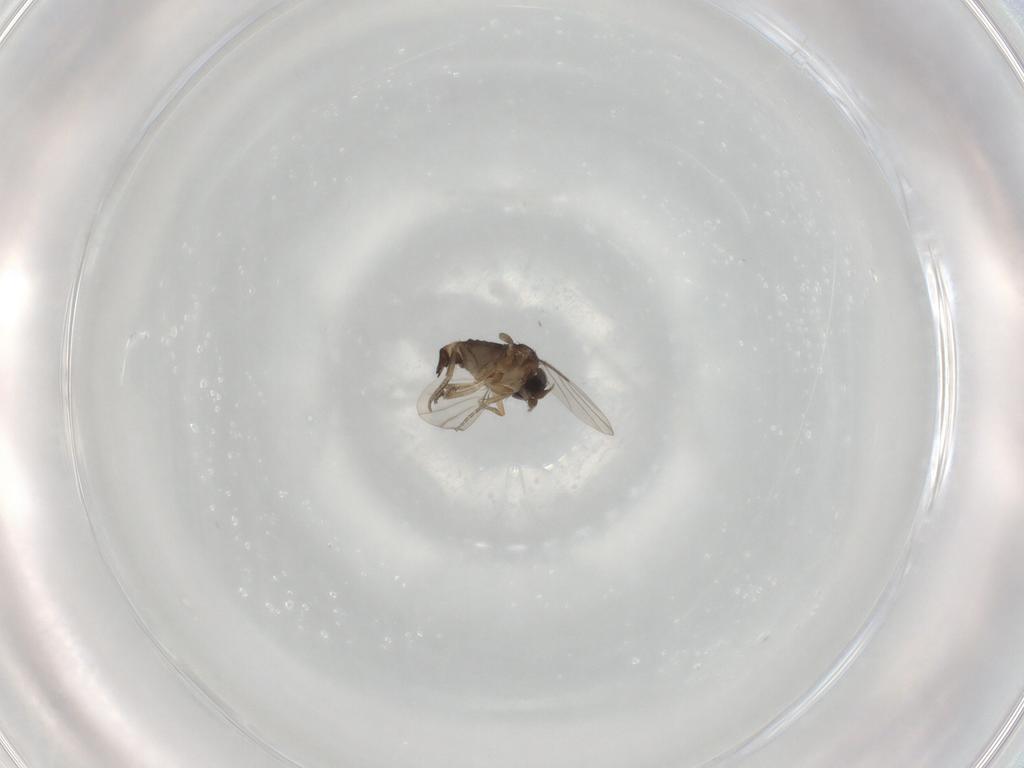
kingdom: Animalia
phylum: Arthropoda
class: Insecta
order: Diptera
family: Phoridae
